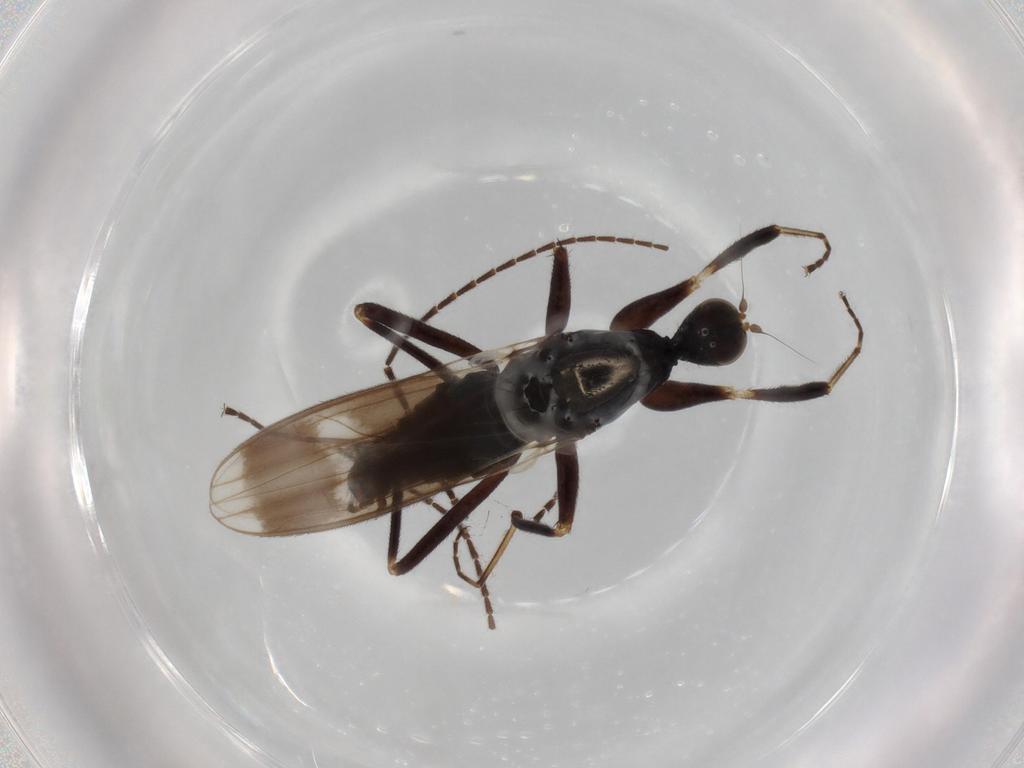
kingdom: Animalia
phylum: Arthropoda
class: Insecta
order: Diptera
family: Hybotidae
